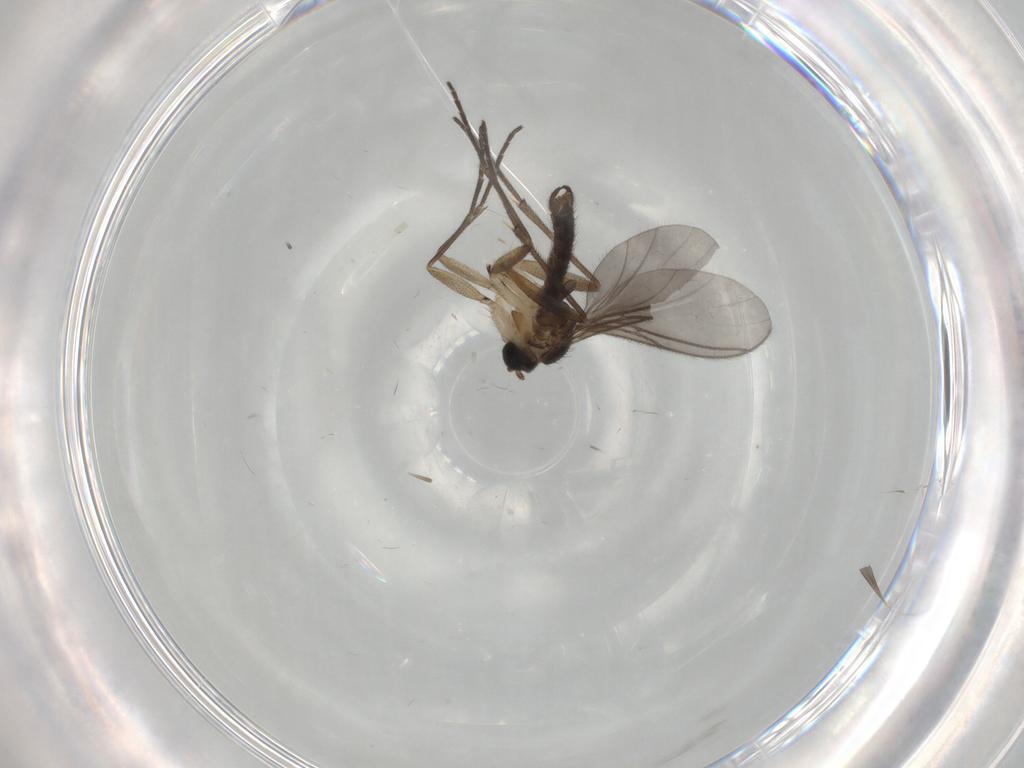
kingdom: Animalia
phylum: Arthropoda
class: Insecta
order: Diptera
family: Sciaridae
